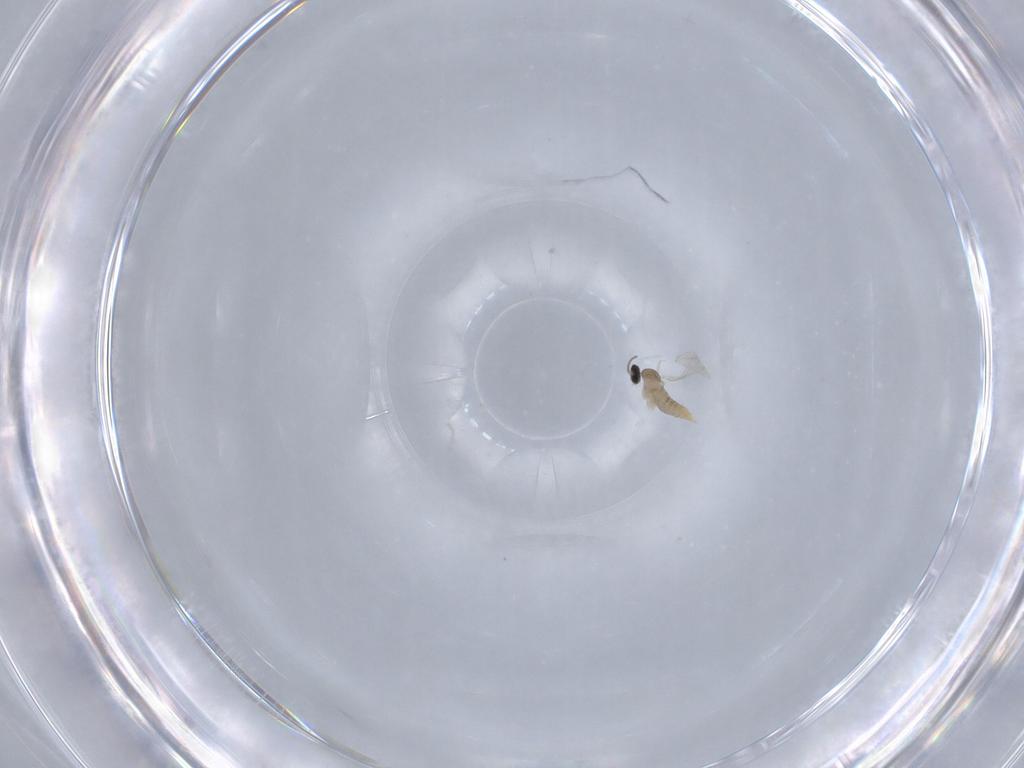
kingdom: Animalia
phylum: Arthropoda
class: Insecta
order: Diptera
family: Cecidomyiidae
